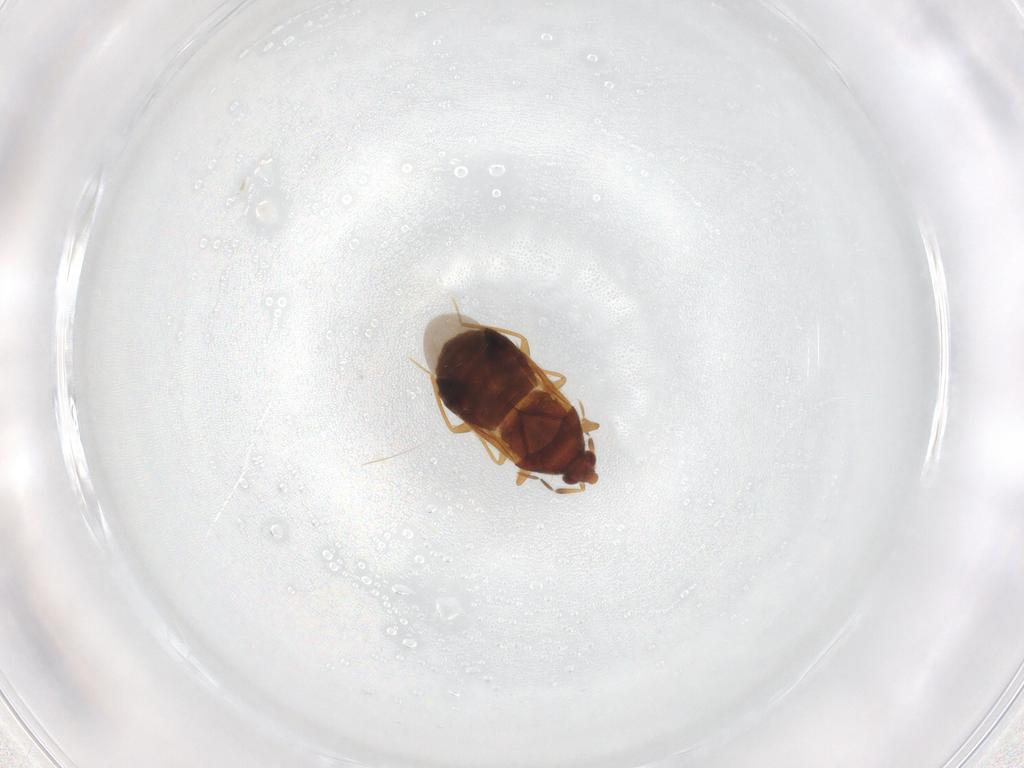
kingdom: Animalia
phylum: Arthropoda
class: Insecta
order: Hemiptera
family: Anthocoridae
